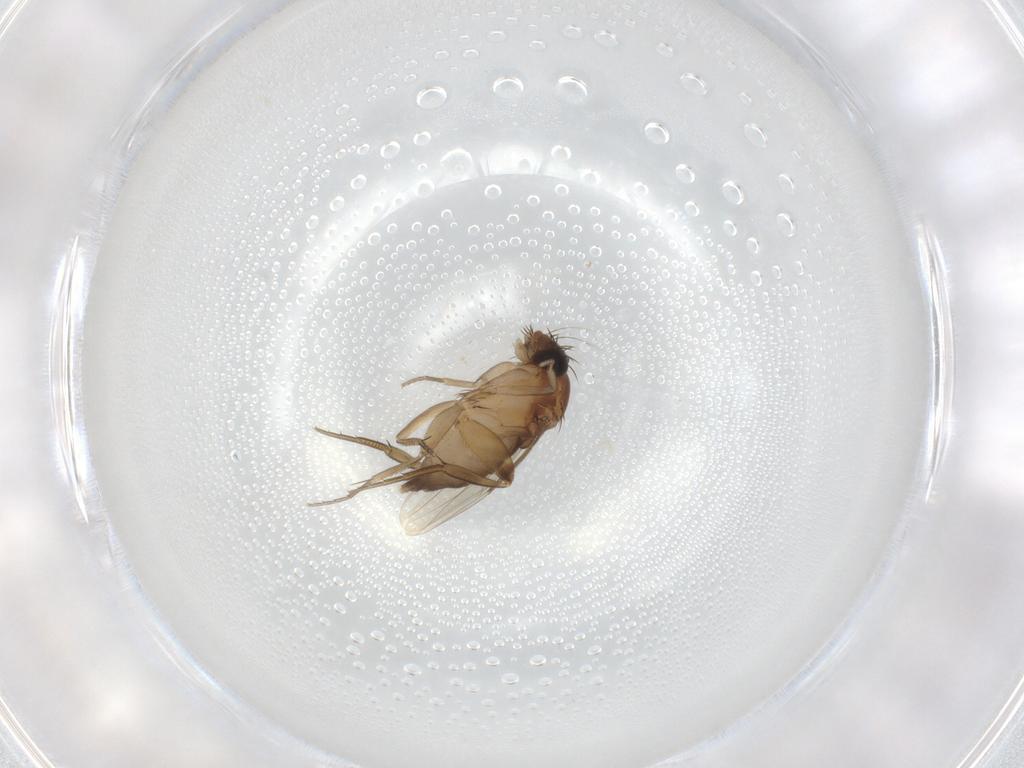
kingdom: Animalia
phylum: Arthropoda
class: Insecta
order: Diptera
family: Phoridae
